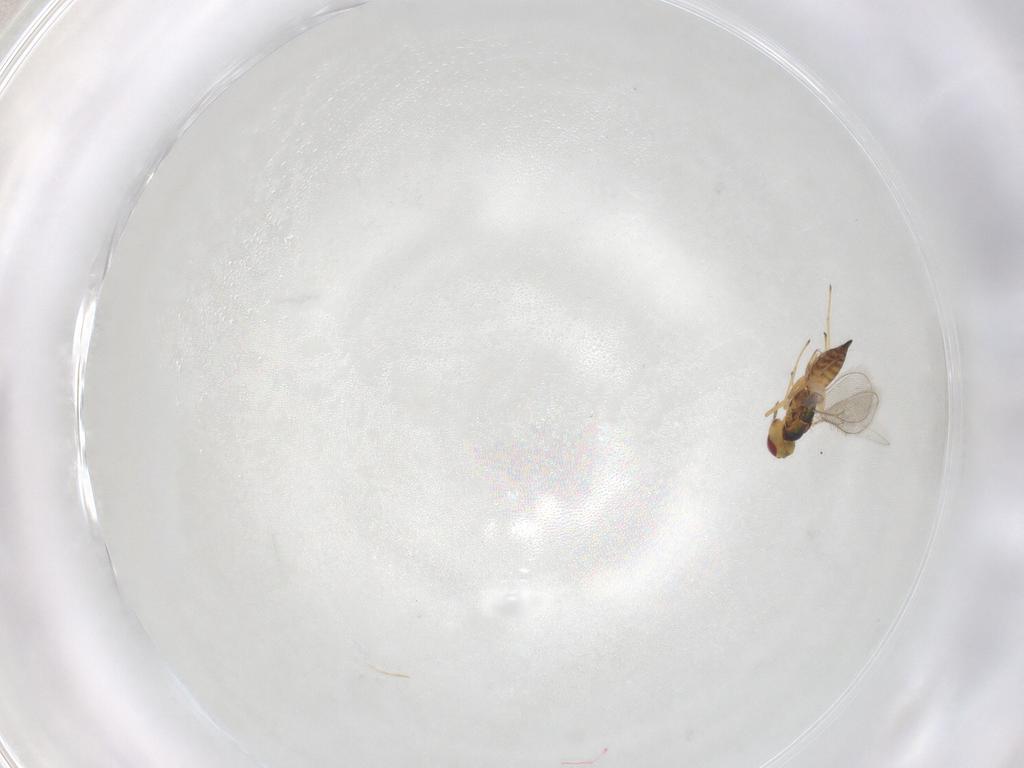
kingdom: Animalia
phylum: Arthropoda
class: Insecta
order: Hymenoptera
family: Eulophidae
